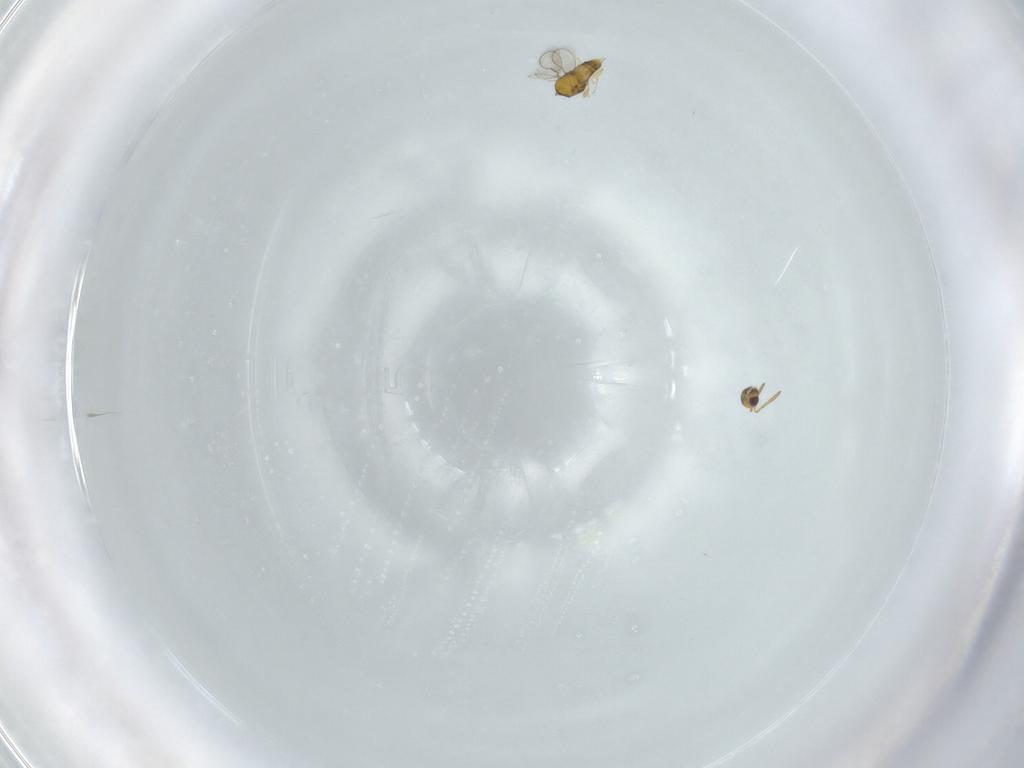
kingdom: Animalia
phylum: Arthropoda
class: Insecta
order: Hymenoptera
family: Aphelinidae
